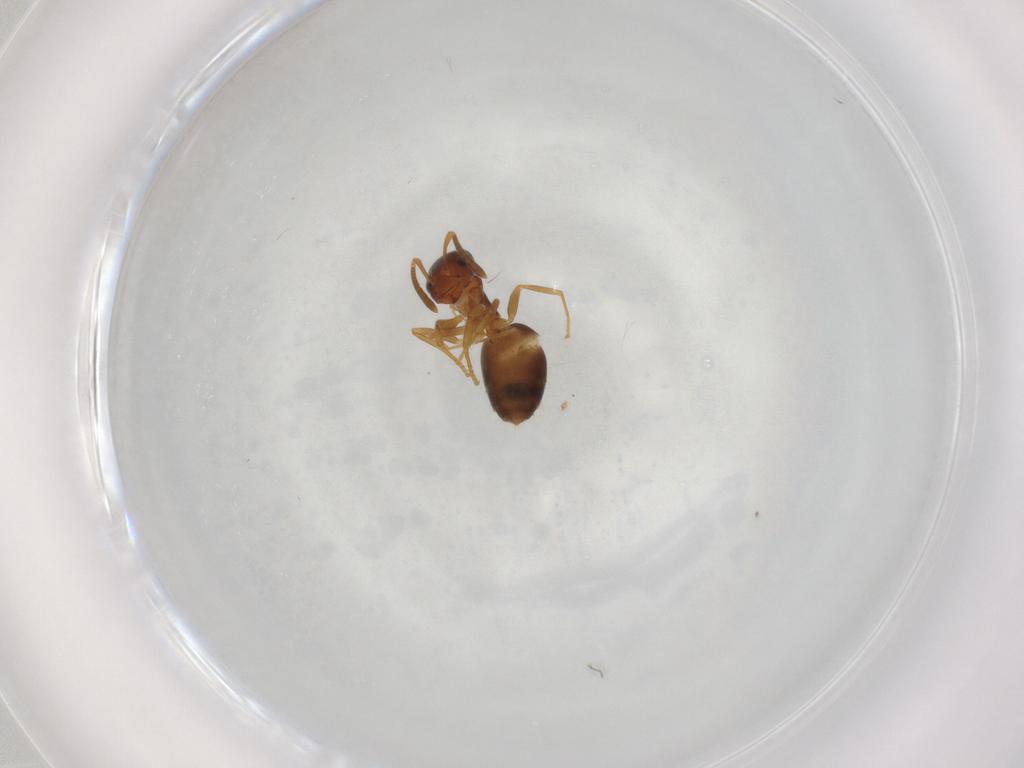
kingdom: Animalia
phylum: Arthropoda
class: Insecta
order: Hymenoptera
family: Formicidae
